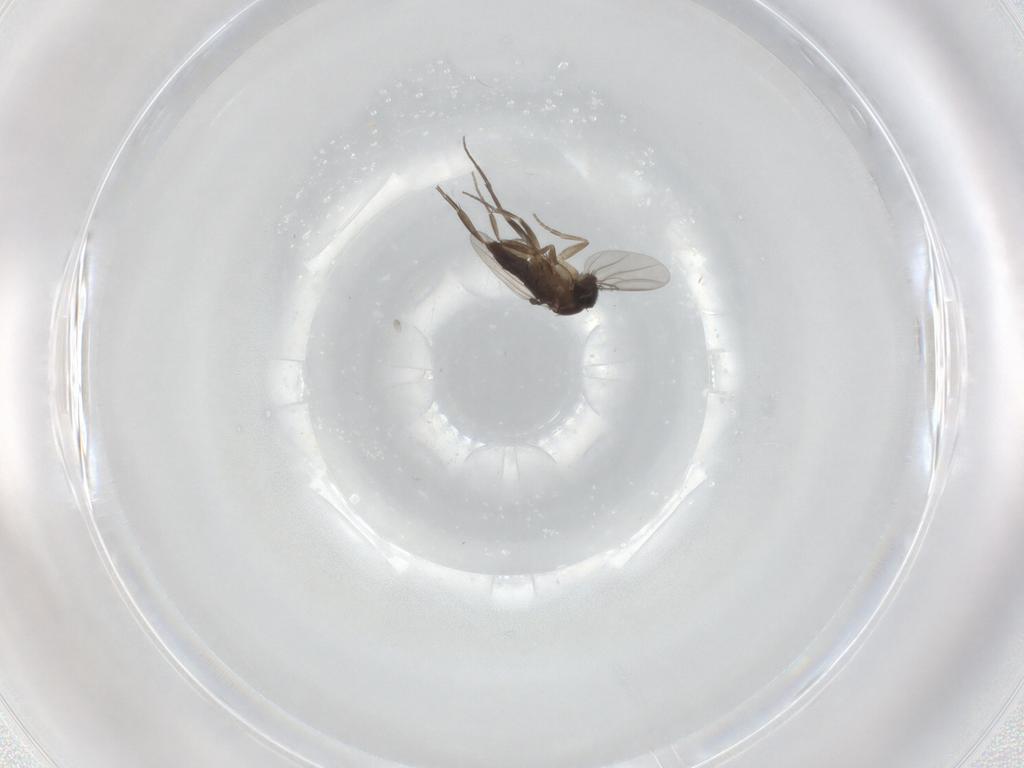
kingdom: Animalia
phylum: Arthropoda
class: Insecta
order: Diptera
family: Phoridae
